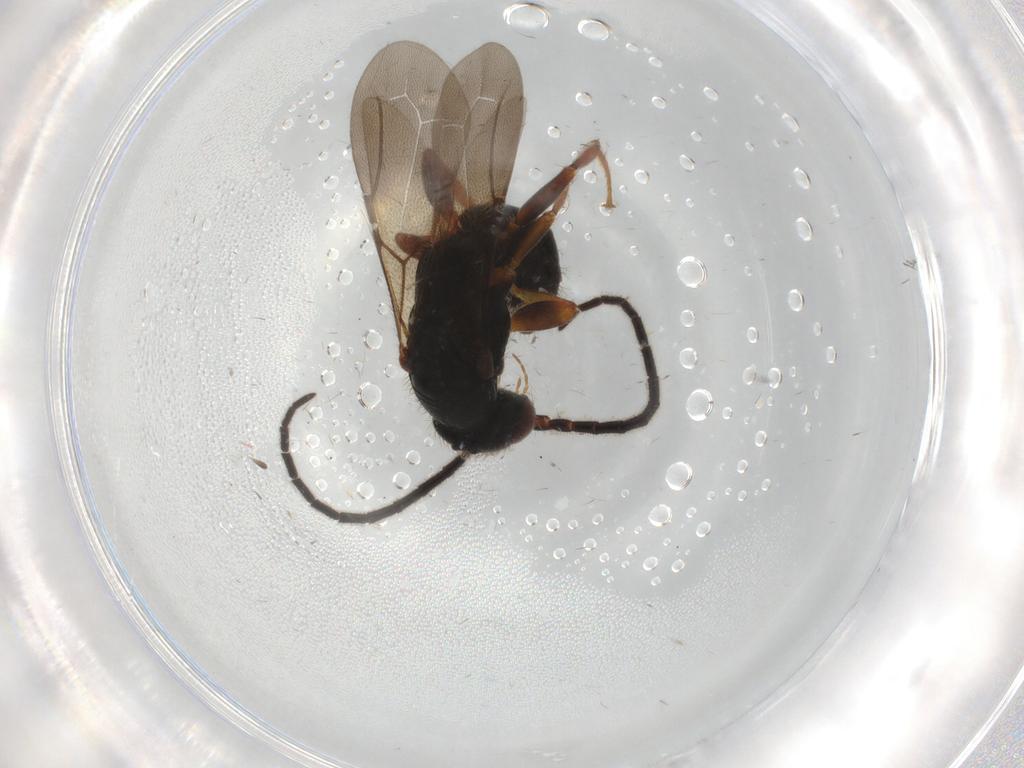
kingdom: Animalia
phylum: Arthropoda
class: Insecta
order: Hymenoptera
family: Bethylidae
